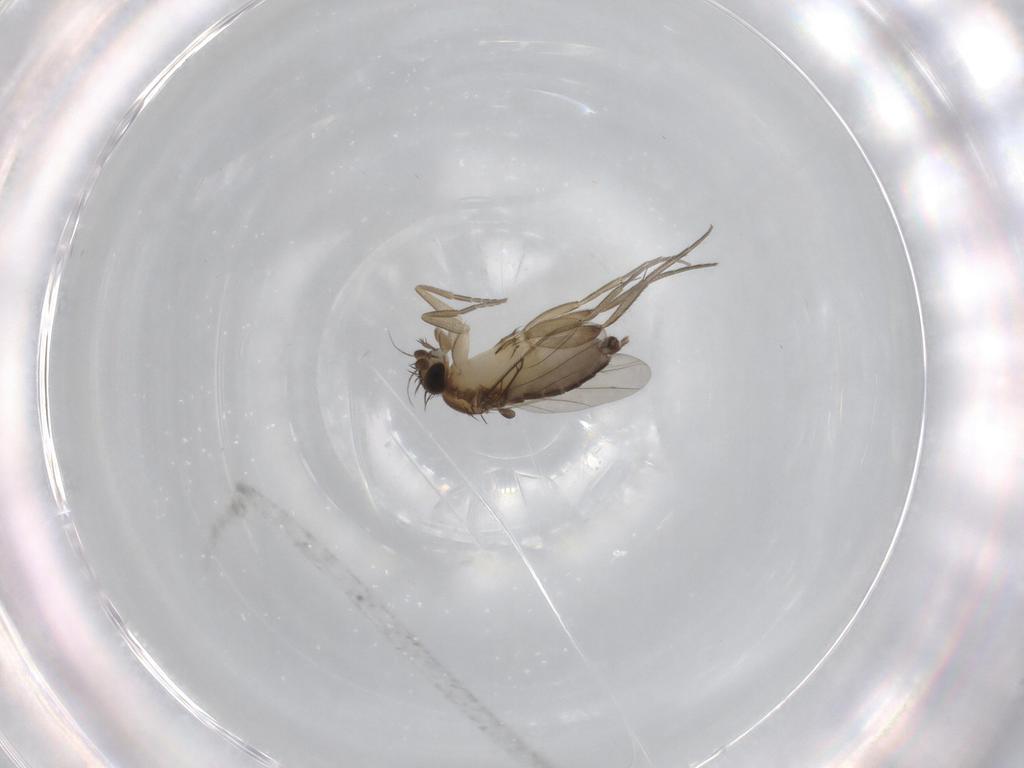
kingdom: Animalia
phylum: Arthropoda
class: Insecta
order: Diptera
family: Phoridae
